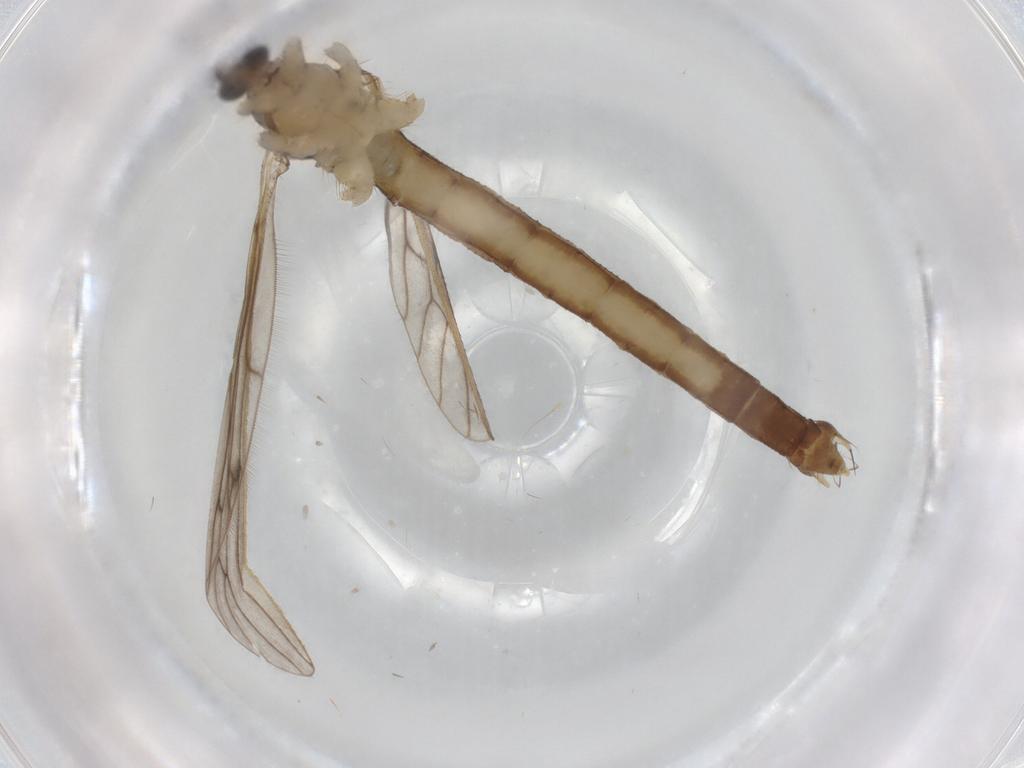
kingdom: Animalia
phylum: Arthropoda
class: Insecta
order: Diptera
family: Limoniidae
